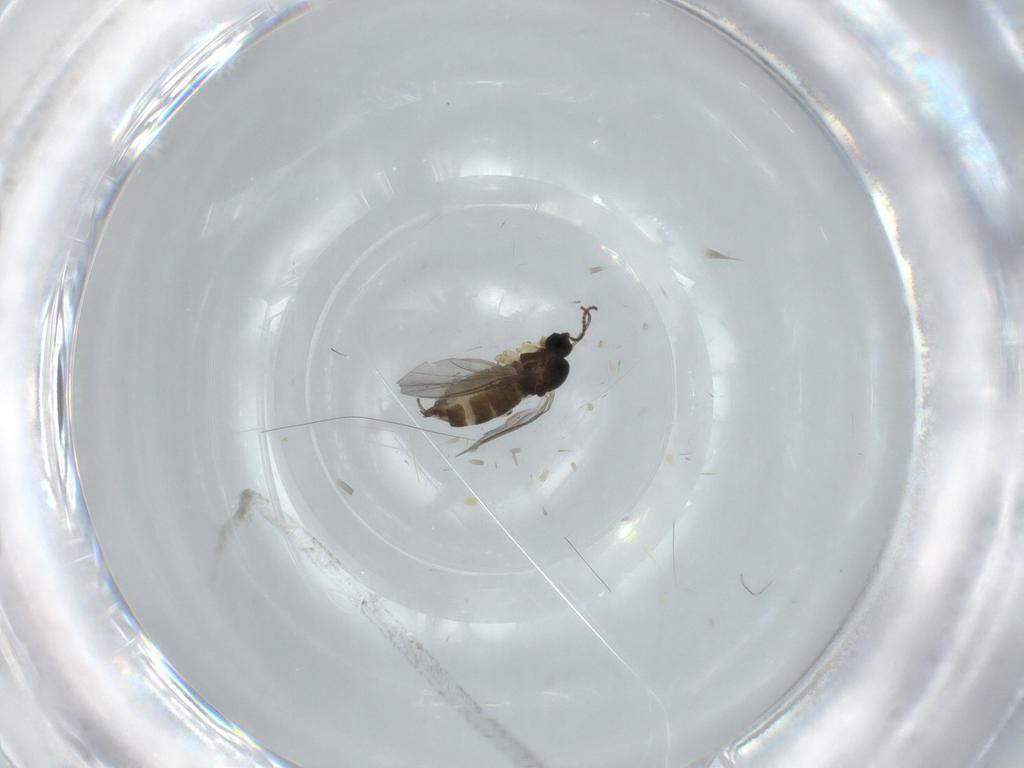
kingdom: Animalia
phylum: Arthropoda
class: Insecta
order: Diptera
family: Sciaridae
